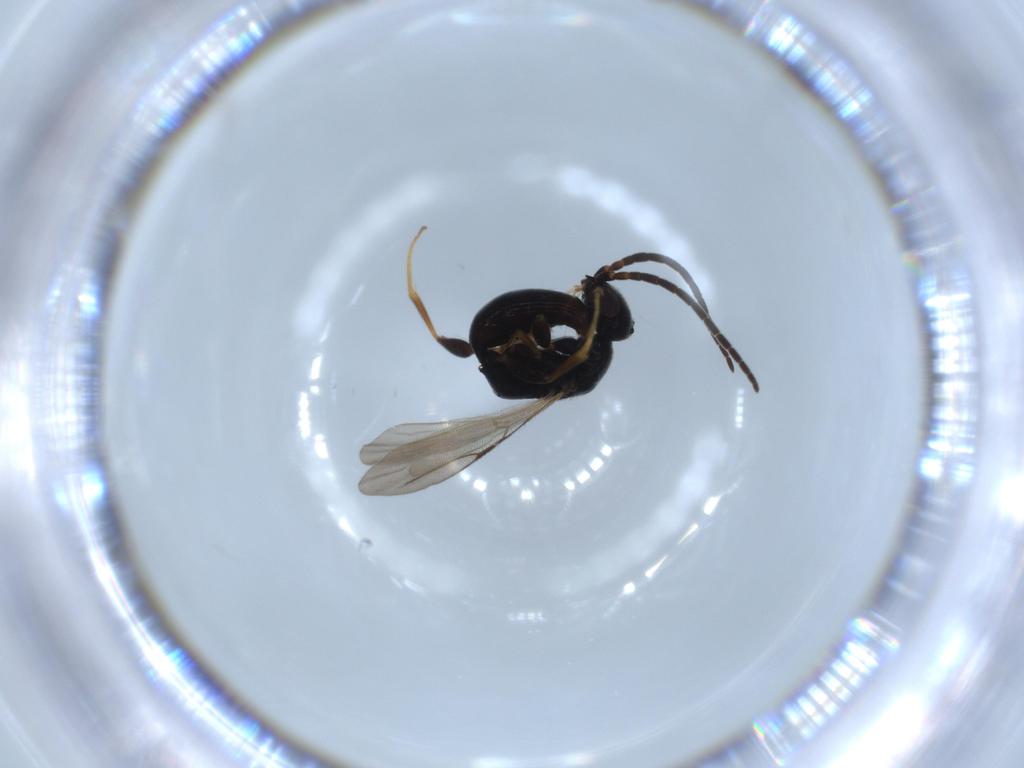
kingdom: Animalia
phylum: Arthropoda
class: Insecta
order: Hymenoptera
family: Bethylidae
